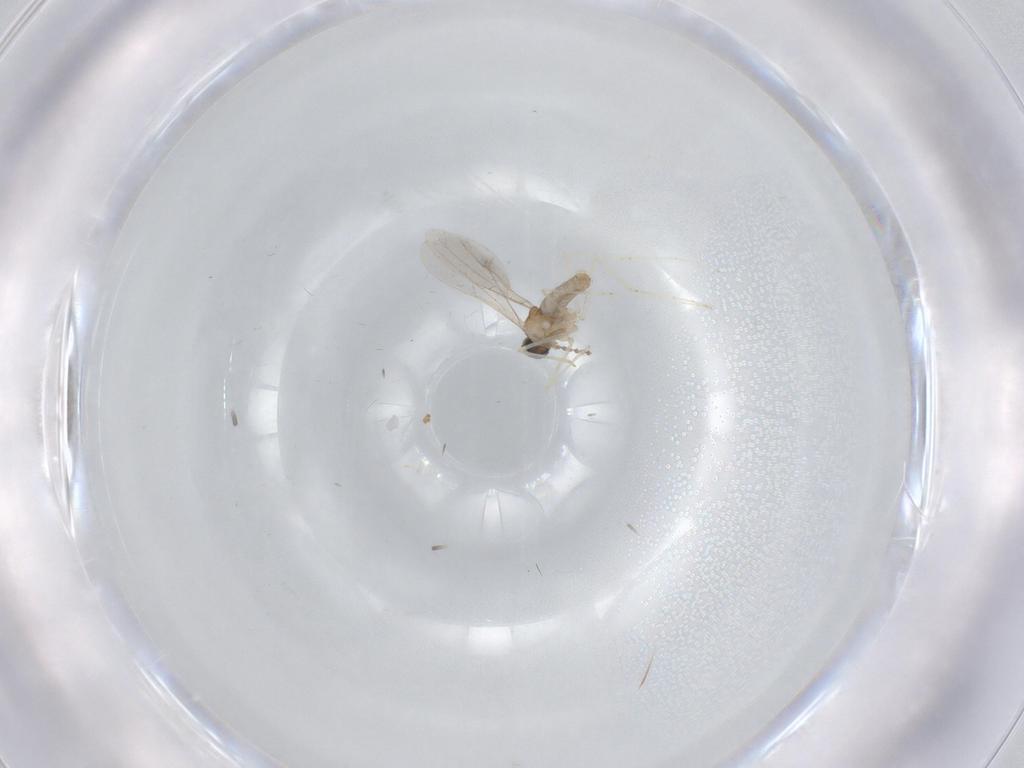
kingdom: Animalia
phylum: Arthropoda
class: Insecta
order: Diptera
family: Cecidomyiidae
